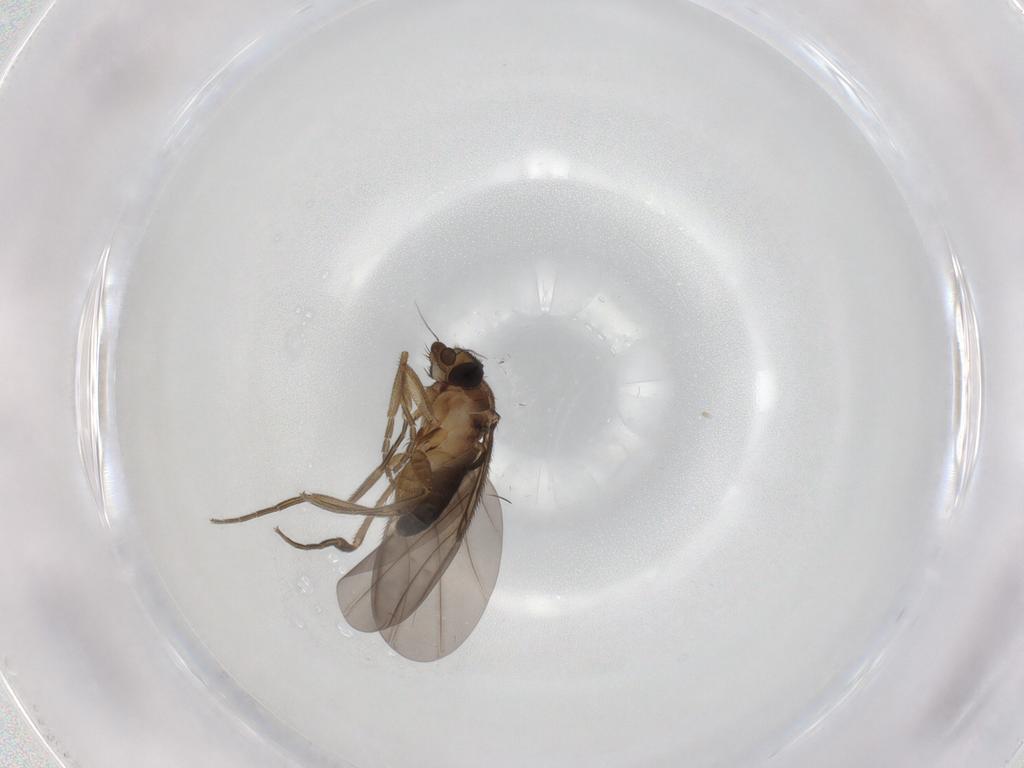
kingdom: Animalia
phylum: Arthropoda
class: Insecta
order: Diptera
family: Phoridae
